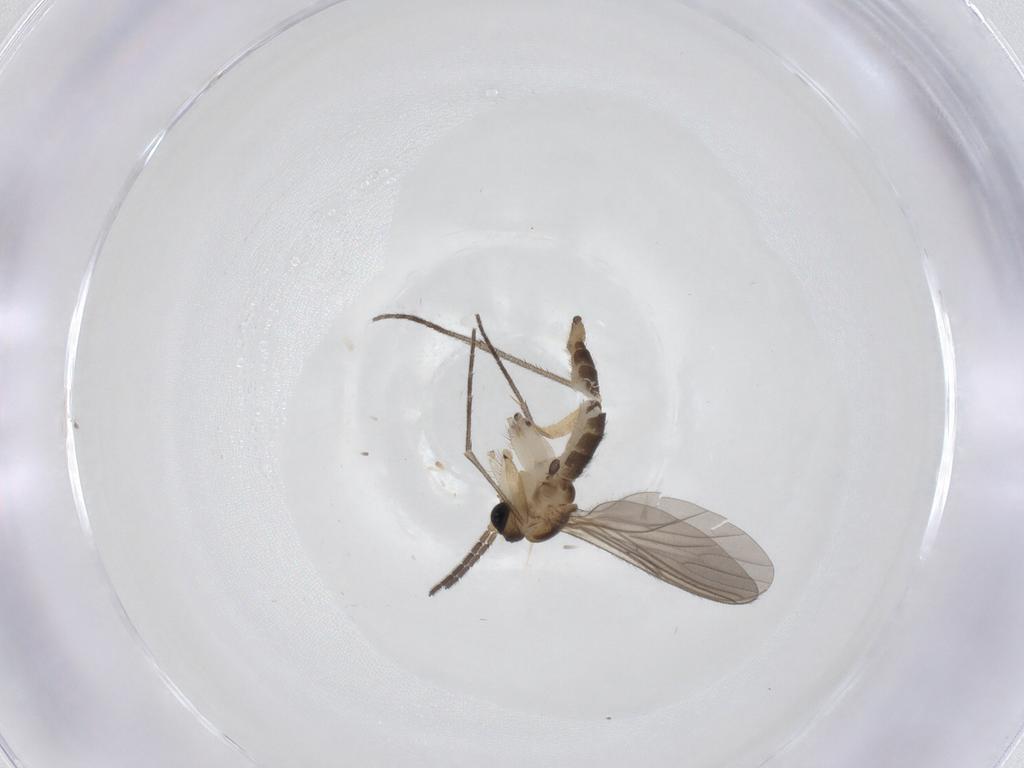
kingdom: Animalia
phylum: Arthropoda
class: Insecta
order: Diptera
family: Sciaridae
